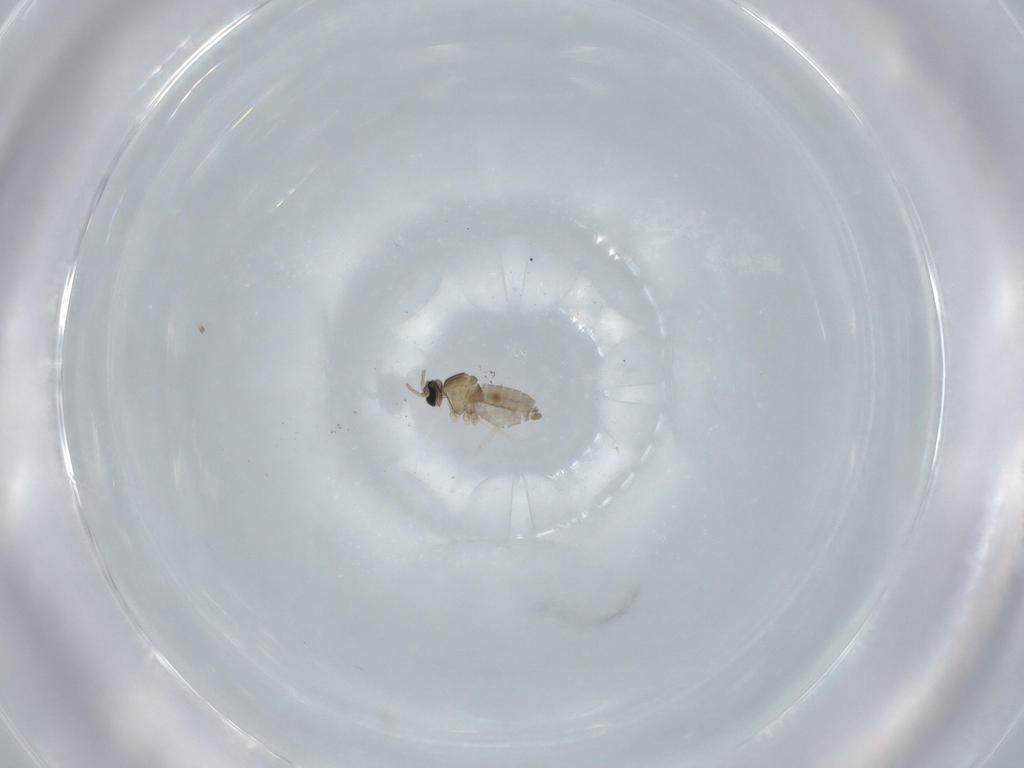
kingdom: Animalia
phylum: Arthropoda
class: Insecta
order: Diptera
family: Cecidomyiidae
